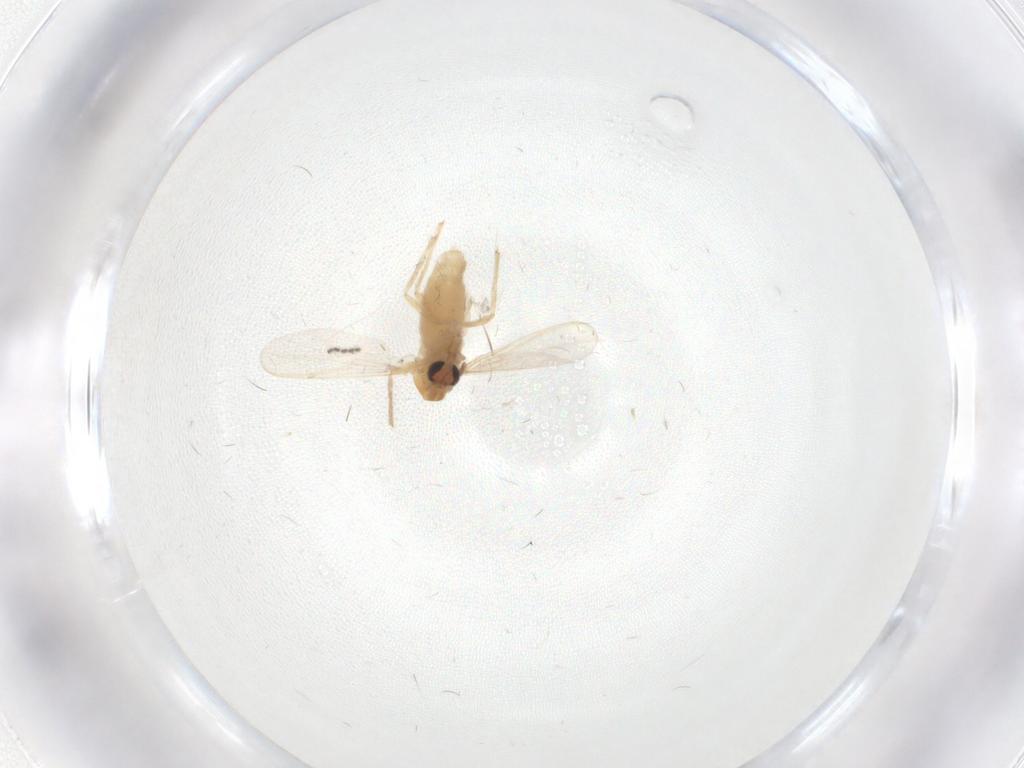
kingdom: Animalia
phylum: Arthropoda
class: Insecta
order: Diptera
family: Chironomidae
